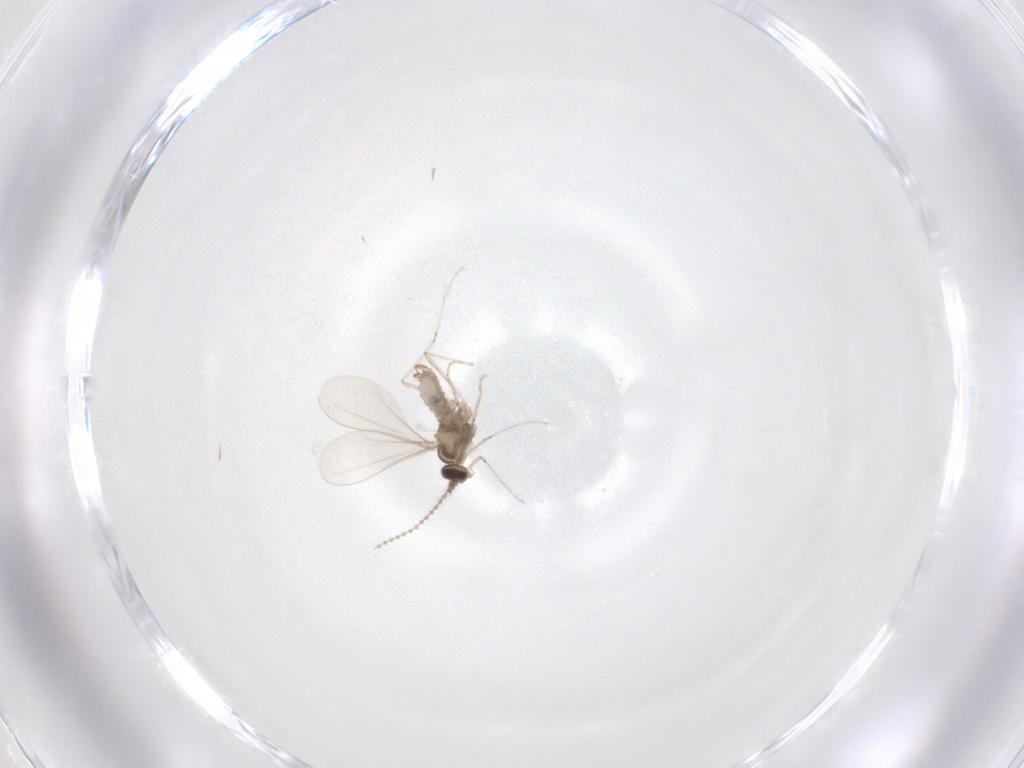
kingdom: Animalia
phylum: Arthropoda
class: Insecta
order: Diptera
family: Cecidomyiidae
